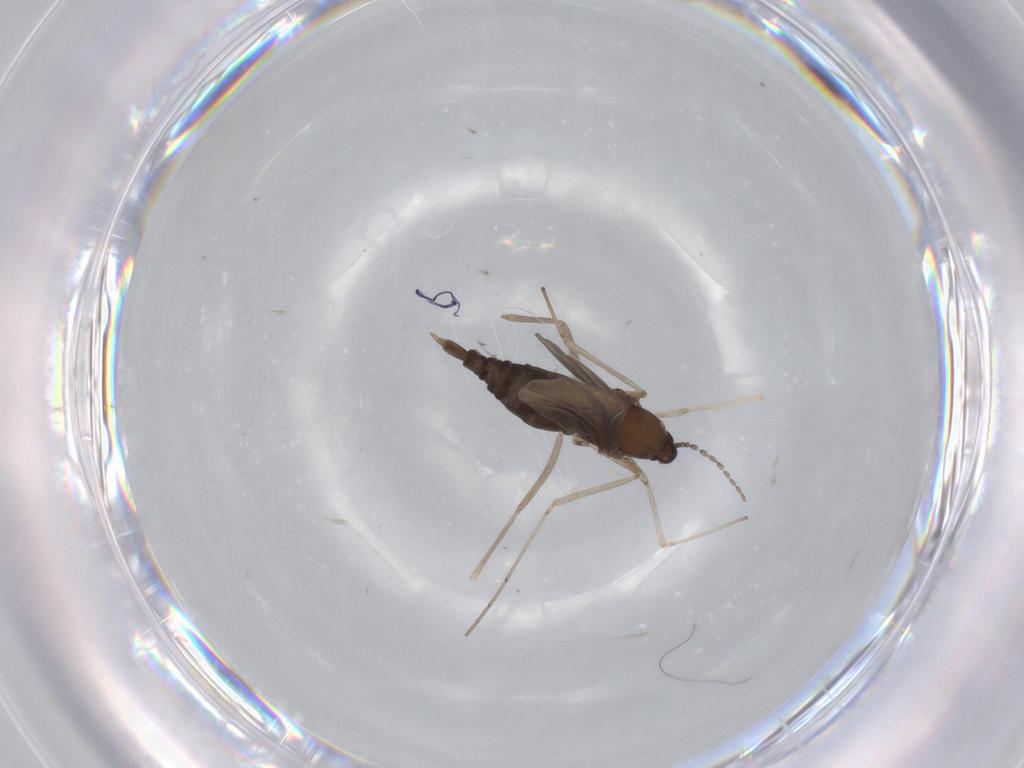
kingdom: Animalia
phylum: Arthropoda
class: Insecta
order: Diptera
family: Cecidomyiidae
